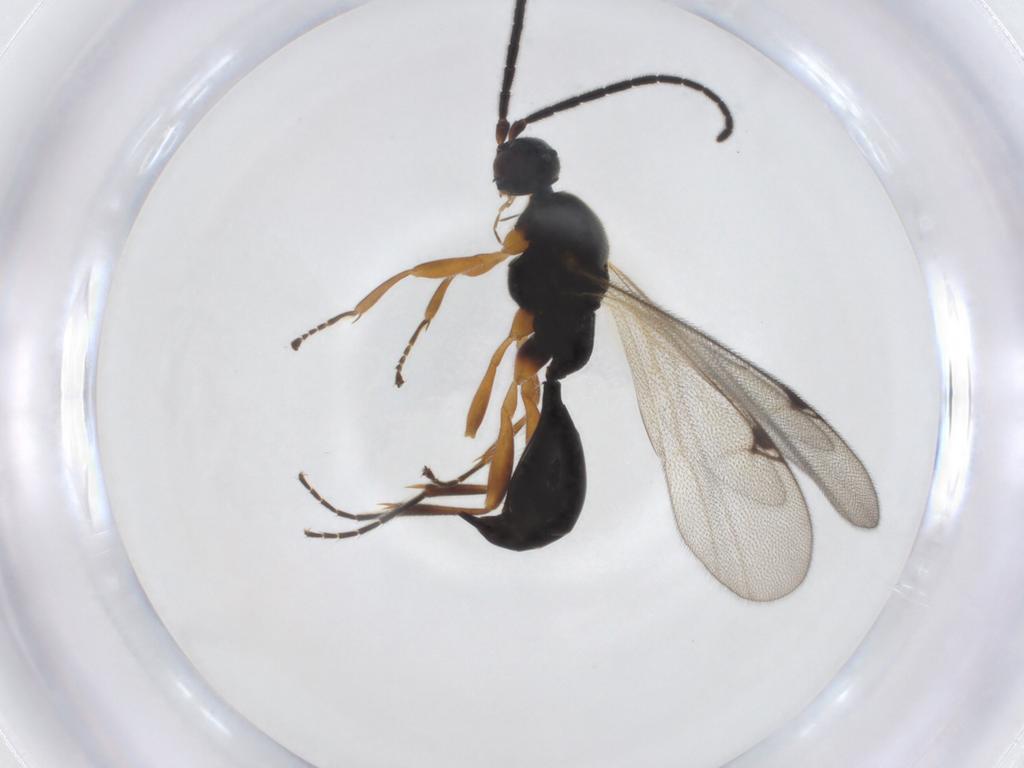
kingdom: Animalia
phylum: Arthropoda
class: Insecta
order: Hymenoptera
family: Proctotrupidae
